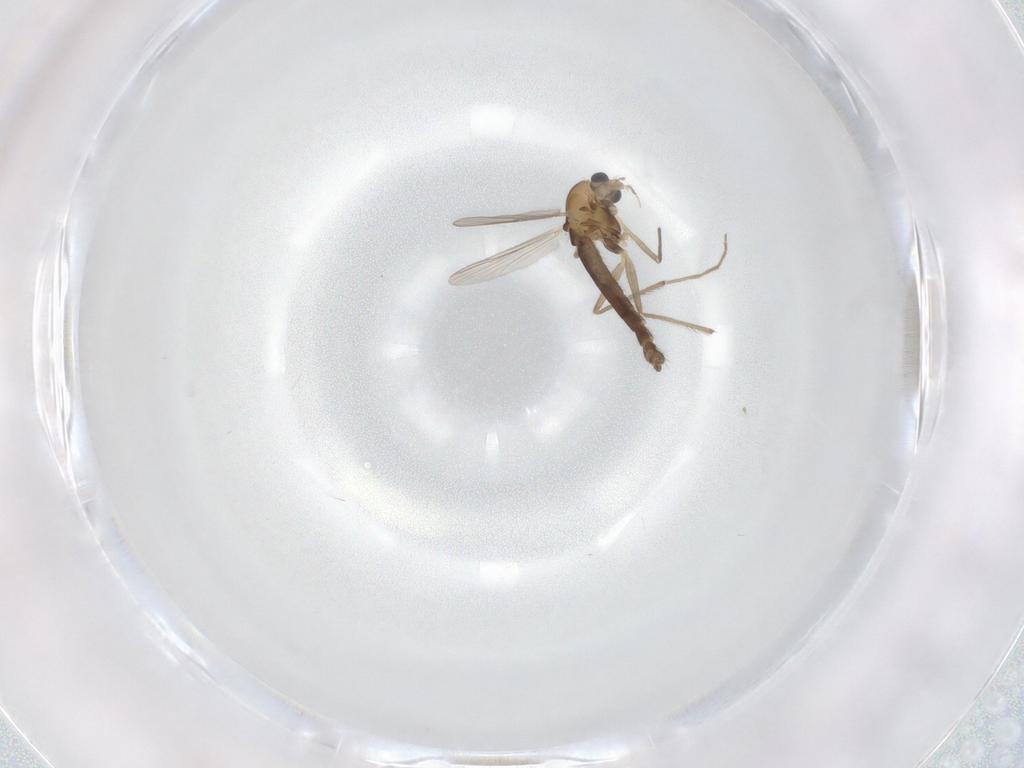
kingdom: Animalia
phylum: Arthropoda
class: Insecta
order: Diptera
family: Chironomidae
